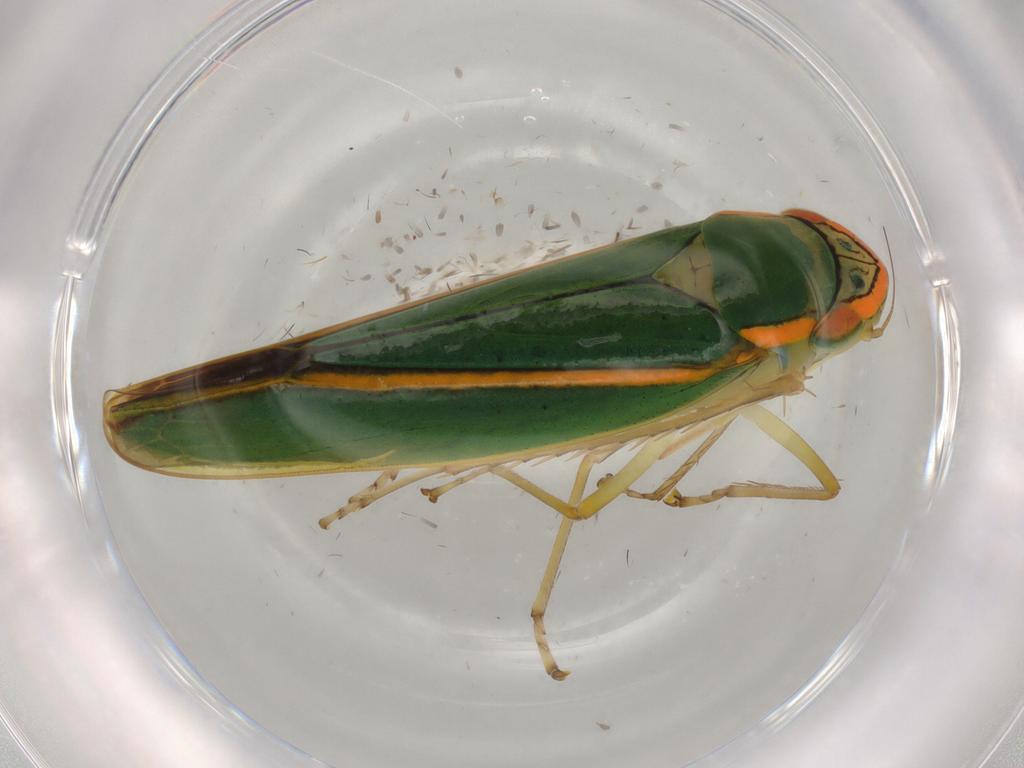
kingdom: Animalia
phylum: Arthropoda
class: Insecta
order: Hemiptera
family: Cicadellidae
